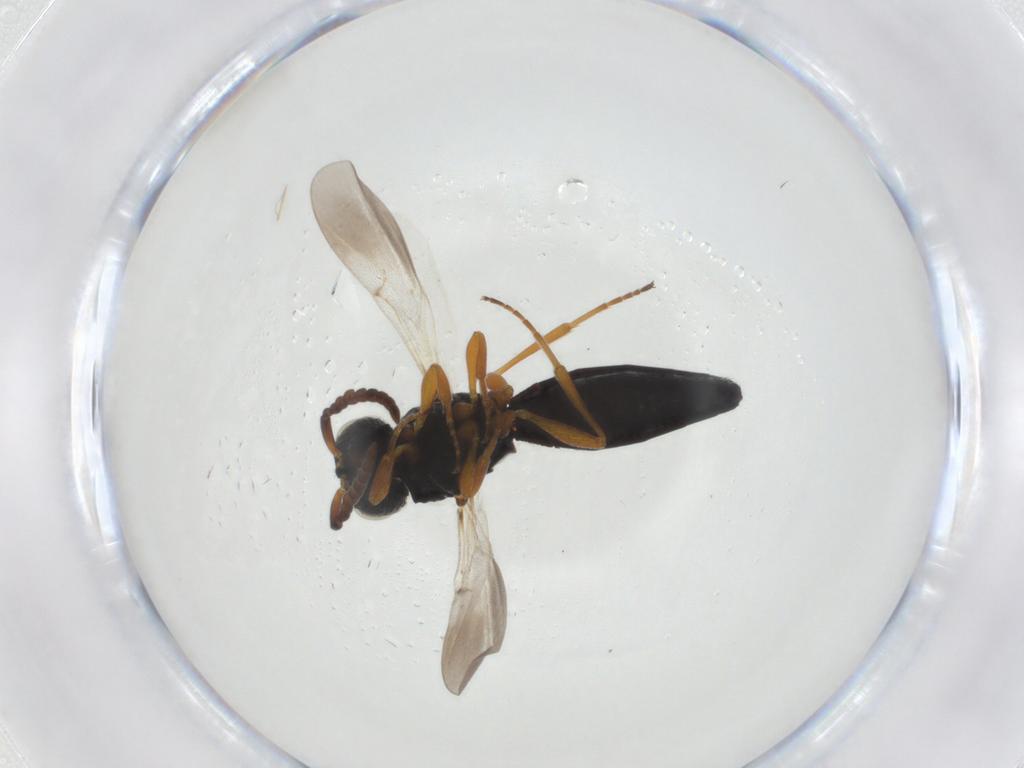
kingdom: Animalia
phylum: Arthropoda
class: Insecta
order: Hymenoptera
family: Scelionidae
